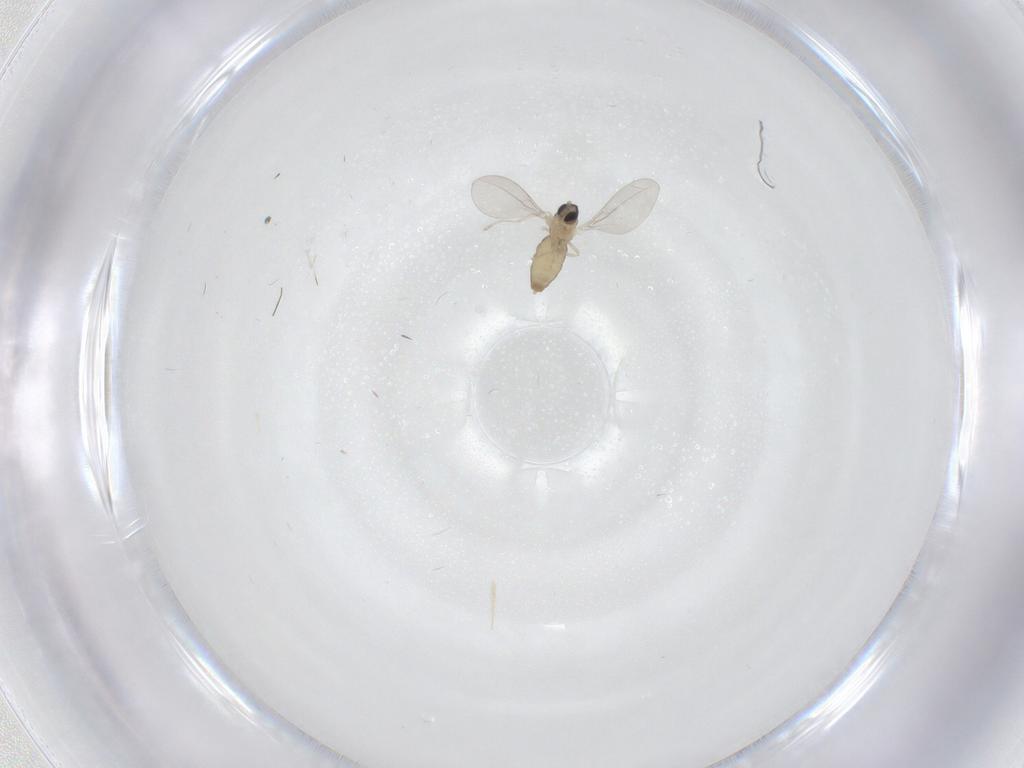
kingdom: Animalia
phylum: Arthropoda
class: Insecta
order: Diptera
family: Cecidomyiidae
